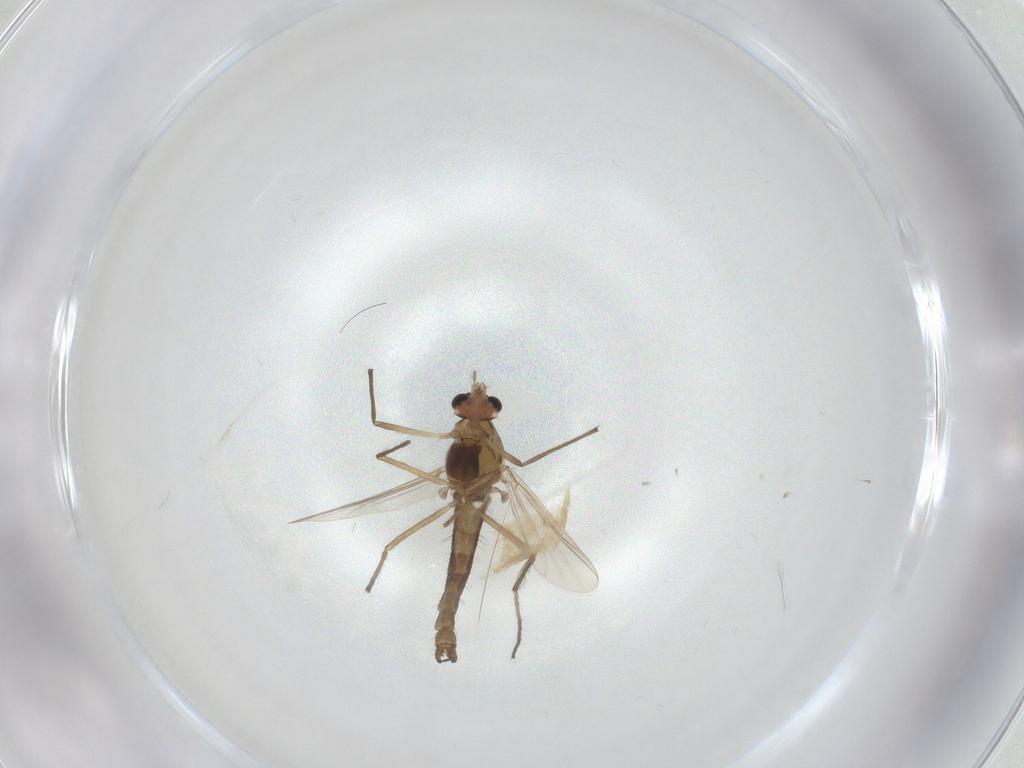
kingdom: Animalia
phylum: Arthropoda
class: Insecta
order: Diptera
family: Chironomidae
